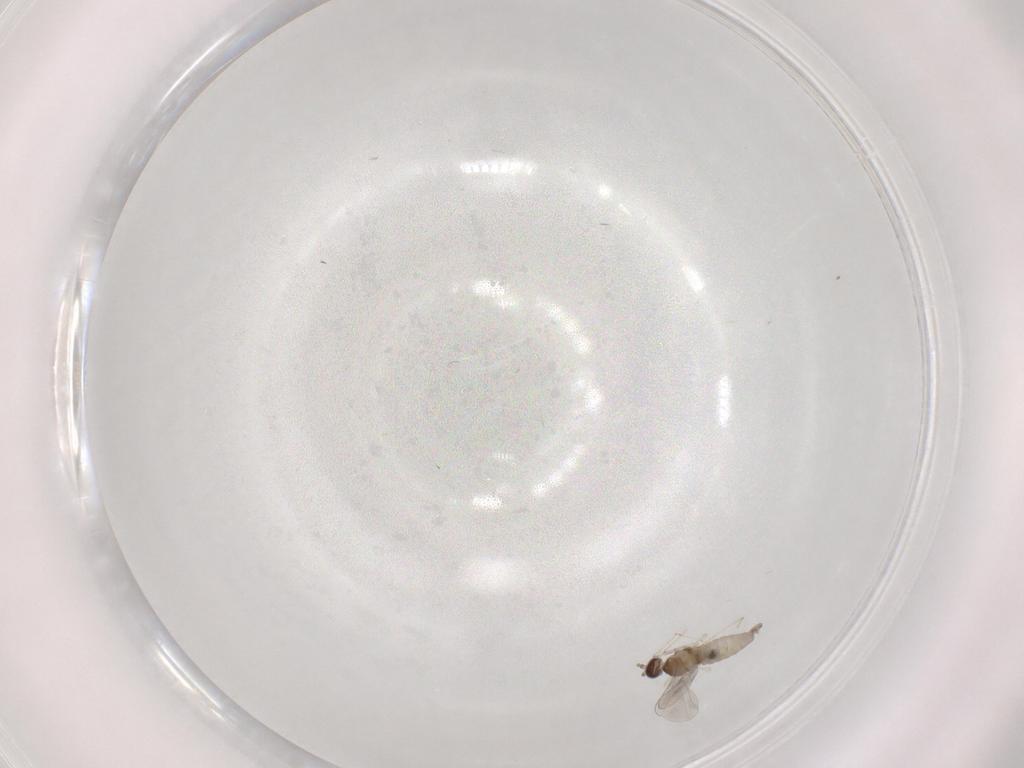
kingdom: Animalia
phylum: Arthropoda
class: Insecta
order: Diptera
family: Cecidomyiidae
